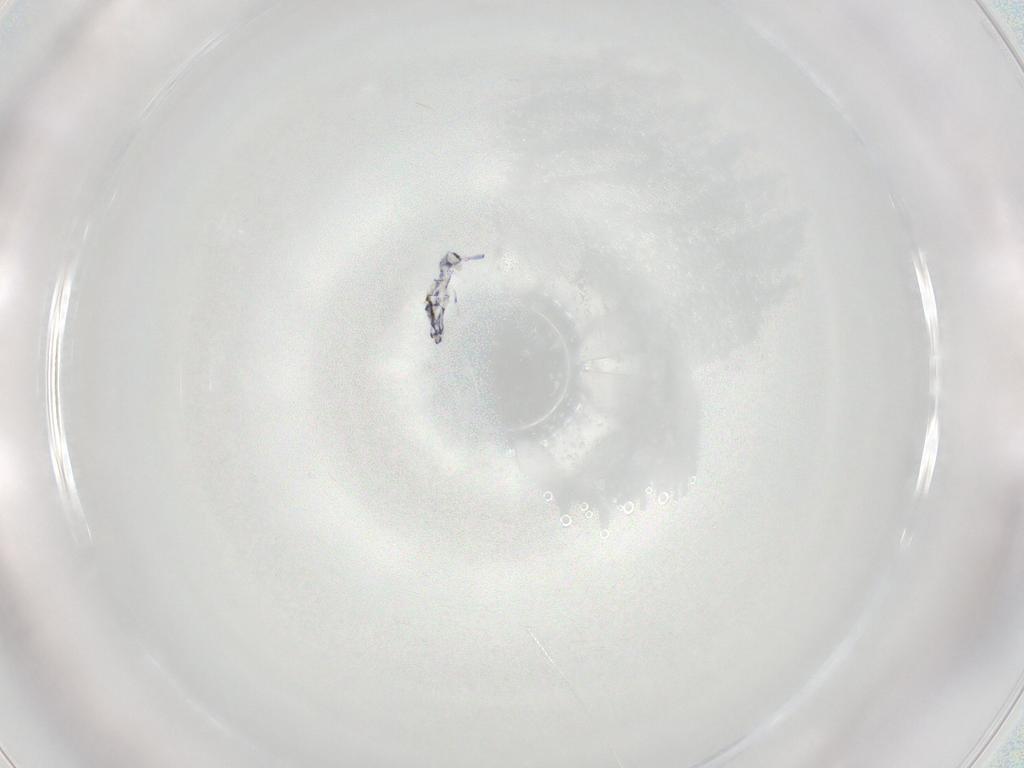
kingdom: Animalia
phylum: Arthropoda
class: Collembola
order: Entomobryomorpha
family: Entomobryidae
